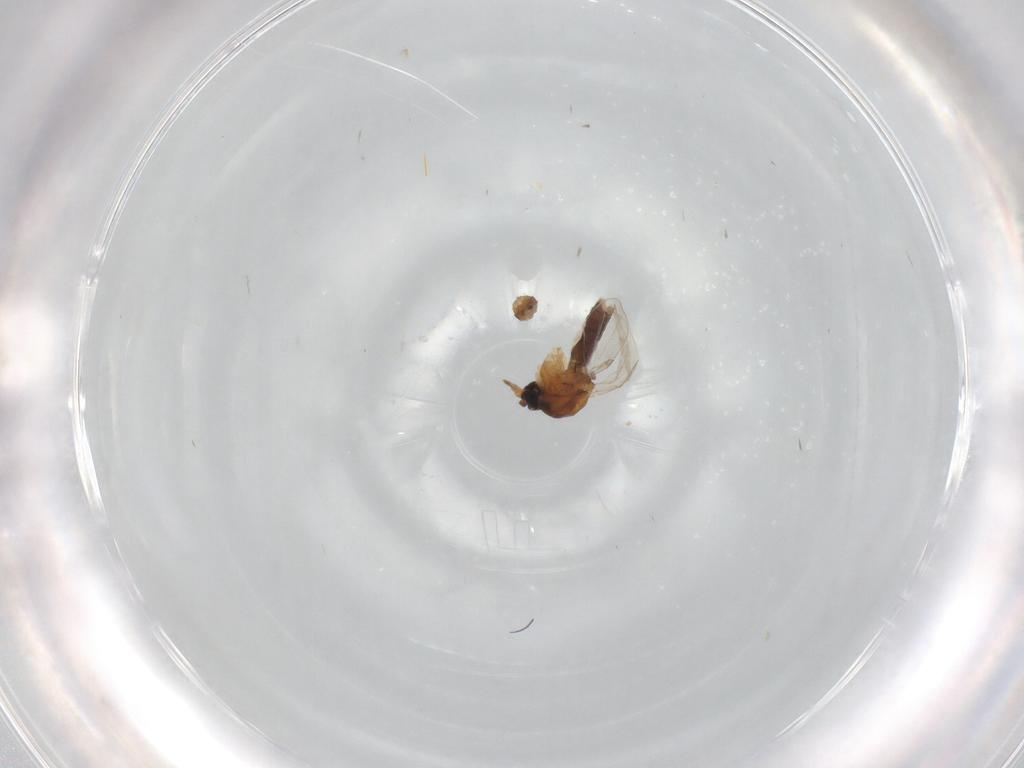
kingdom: Animalia
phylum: Arthropoda
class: Insecta
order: Diptera
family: Ceratopogonidae
